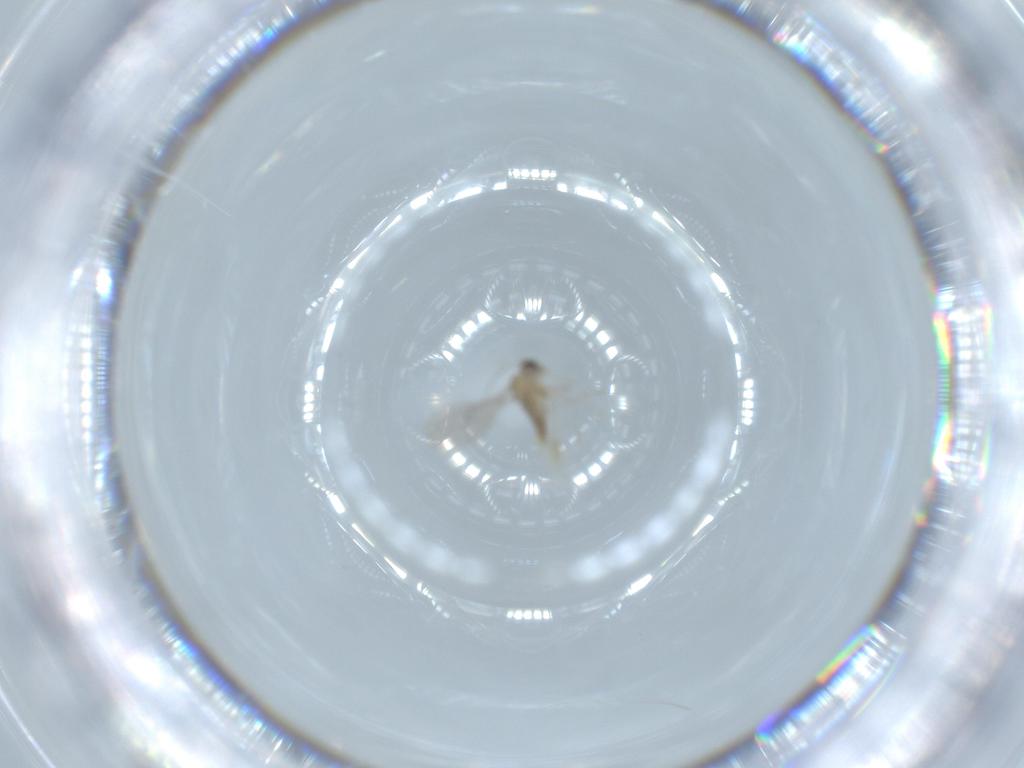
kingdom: Animalia
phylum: Arthropoda
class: Insecta
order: Diptera
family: Cecidomyiidae
